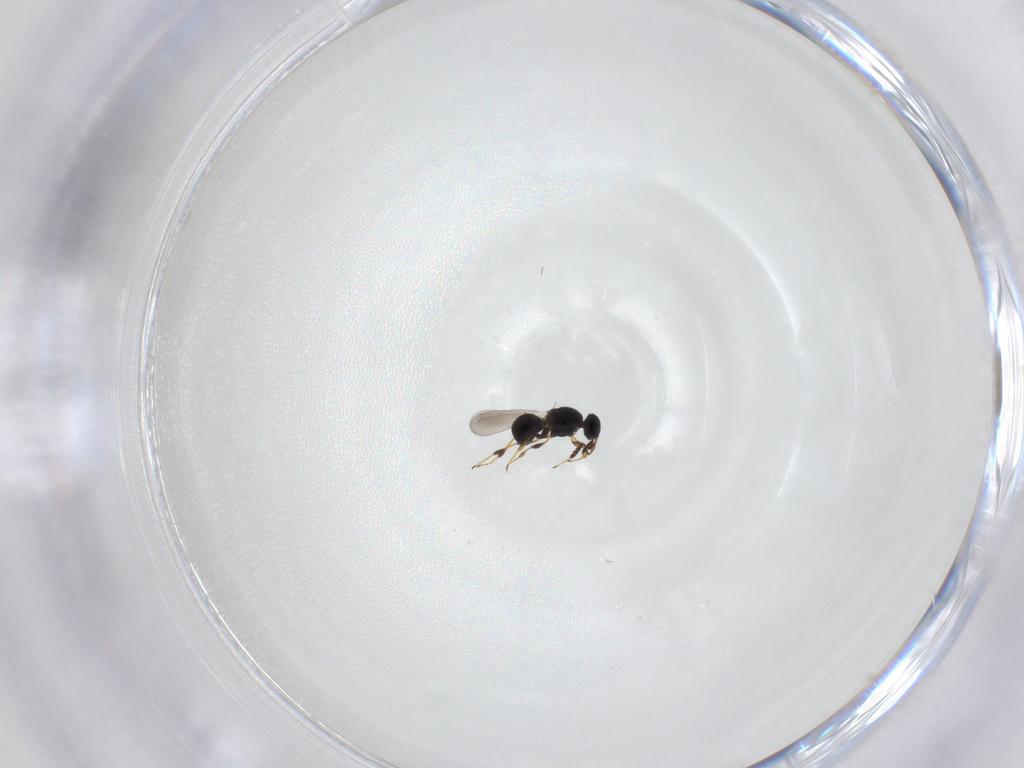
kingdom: Animalia
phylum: Arthropoda
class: Insecta
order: Hymenoptera
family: Platygastridae
